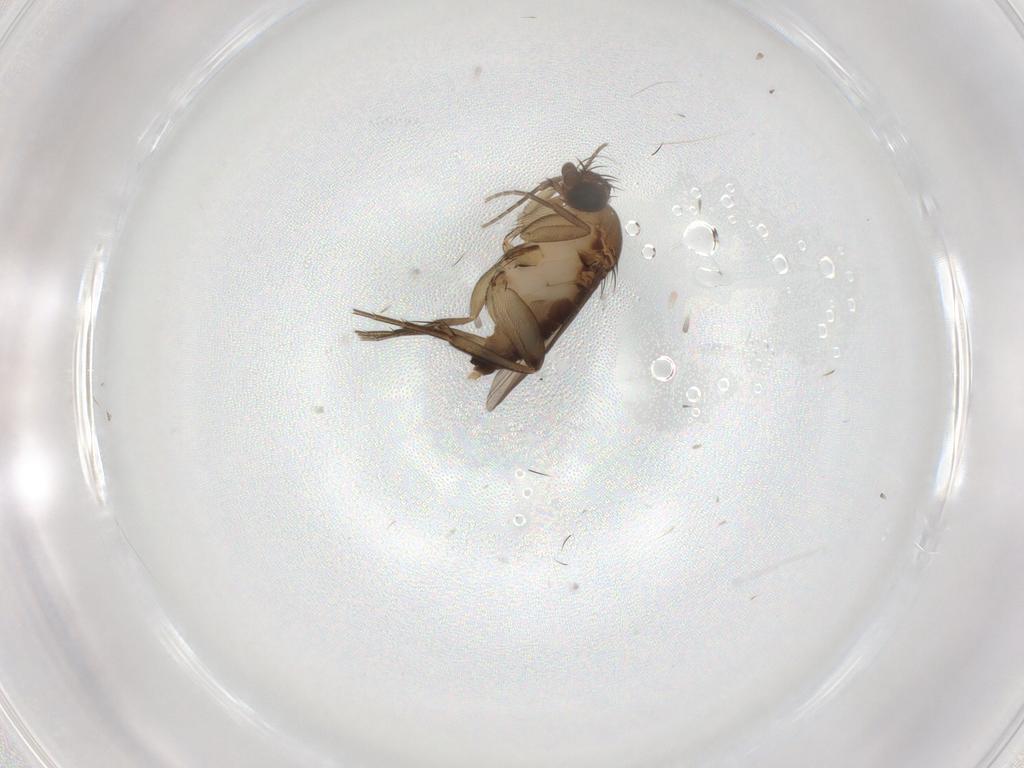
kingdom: Animalia
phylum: Arthropoda
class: Insecta
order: Diptera
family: Phoridae
